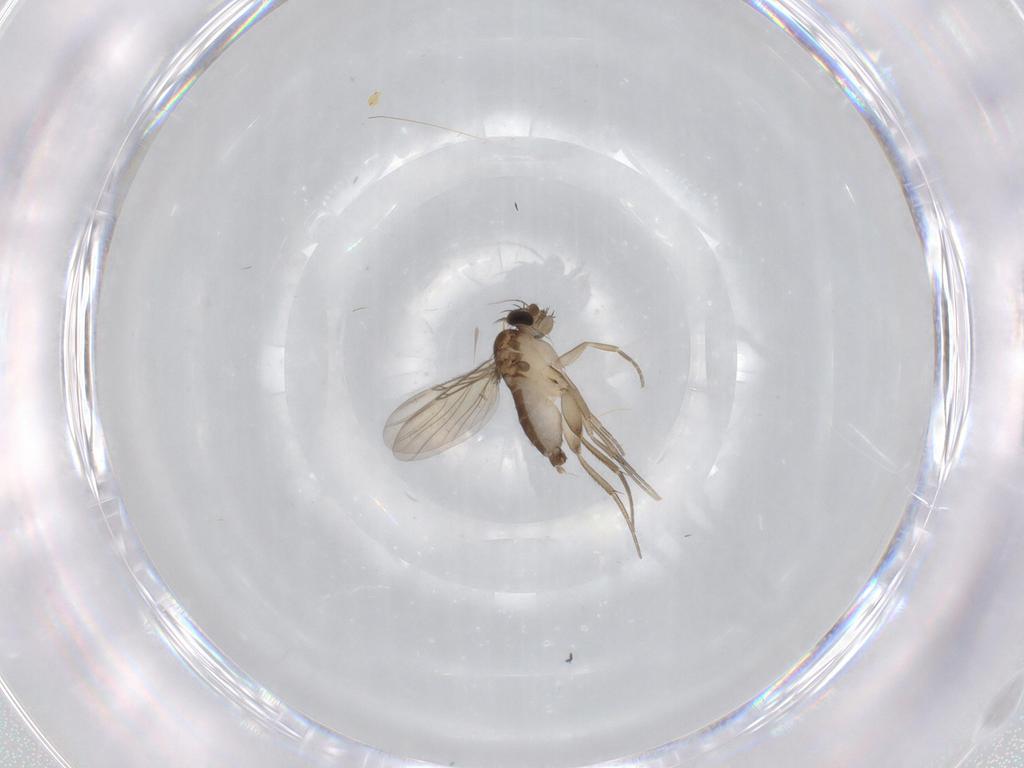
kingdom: Animalia
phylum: Arthropoda
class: Insecta
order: Diptera
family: Phoridae
